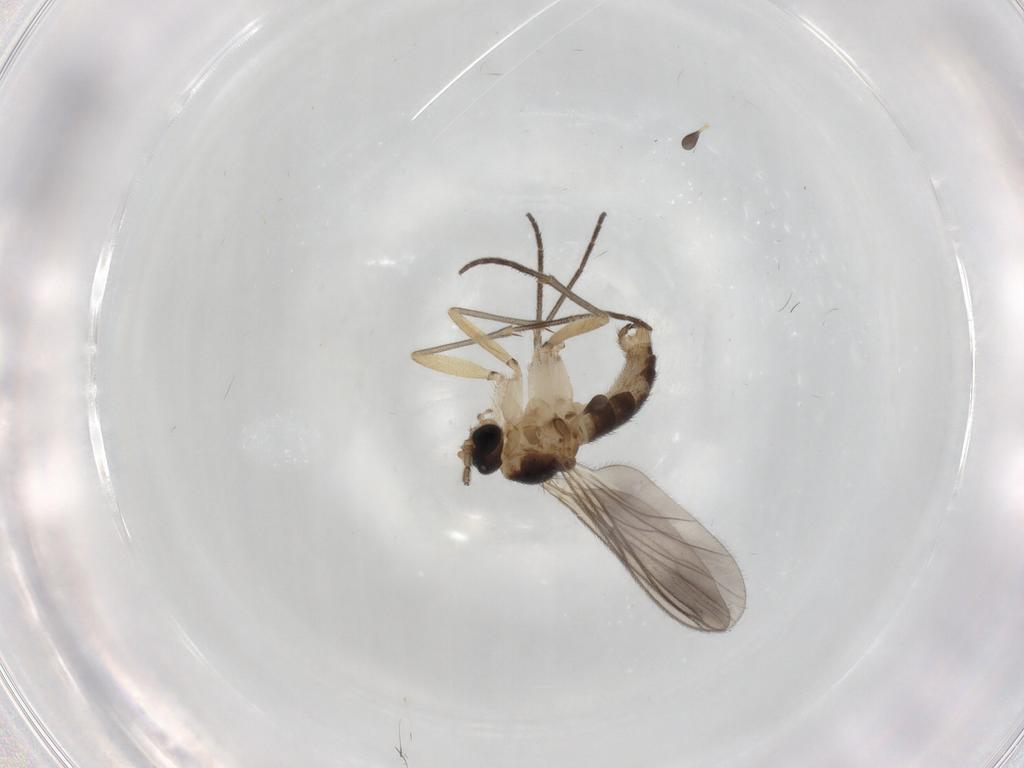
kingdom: Animalia
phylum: Arthropoda
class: Insecta
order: Diptera
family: Sciaridae
